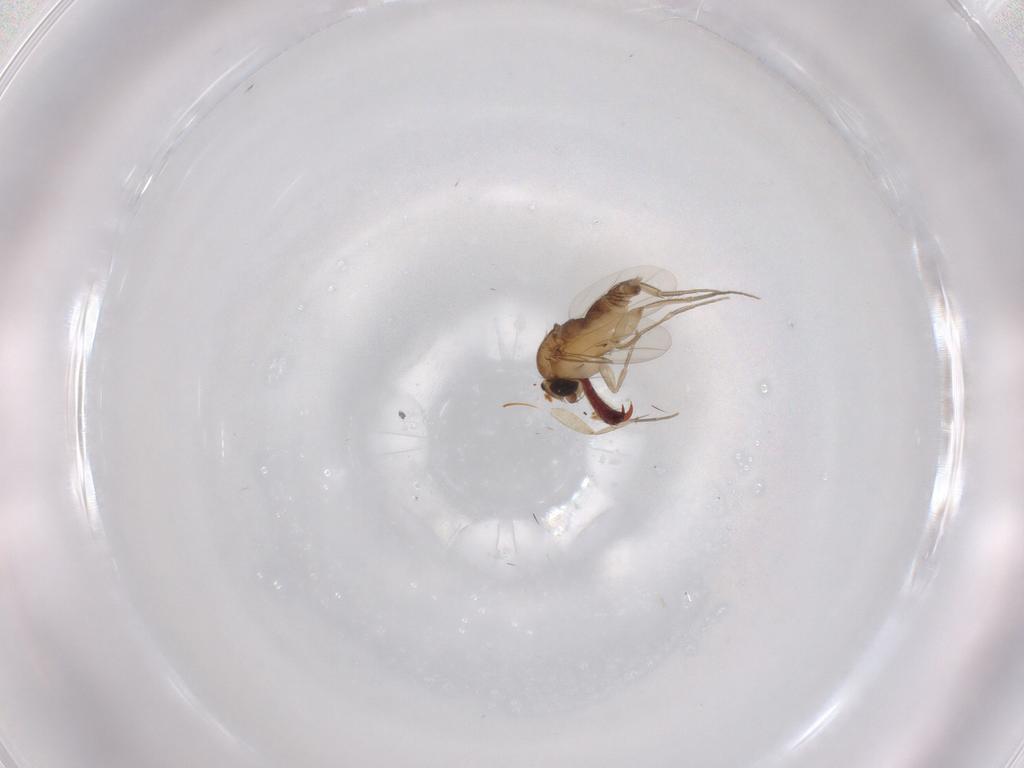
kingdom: Animalia
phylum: Arthropoda
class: Insecta
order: Diptera
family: Phoridae
